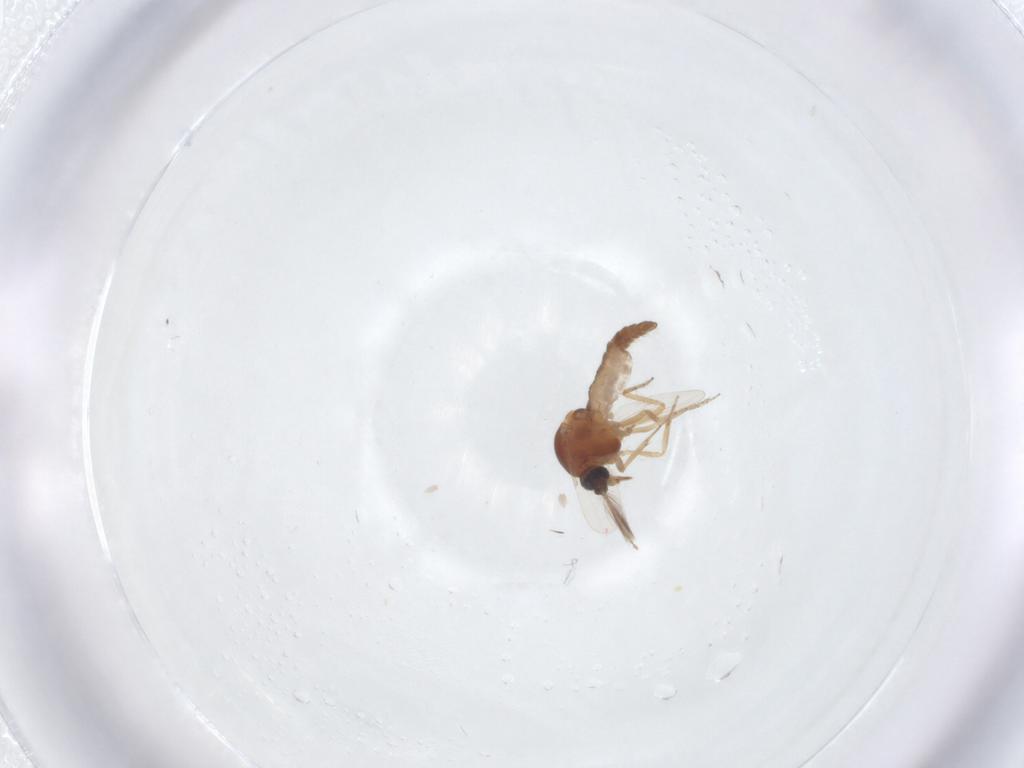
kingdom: Animalia
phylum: Arthropoda
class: Insecta
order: Diptera
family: Ceratopogonidae
